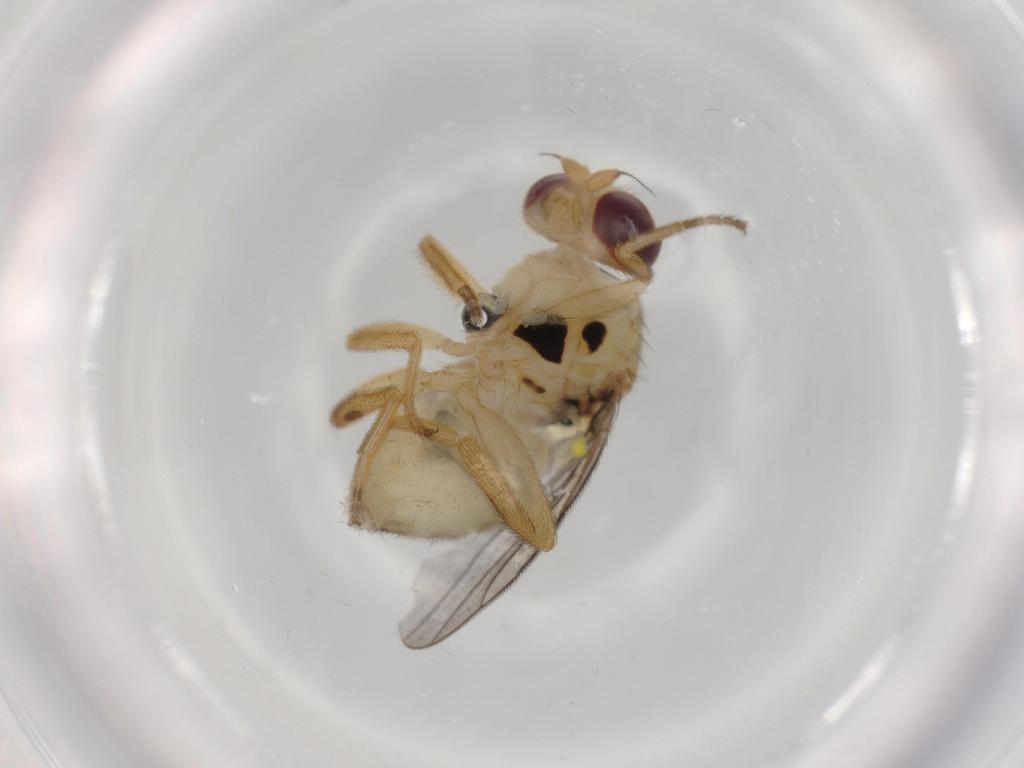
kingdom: Animalia
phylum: Arthropoda
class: Insecta
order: Diptera
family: Chloropidae
